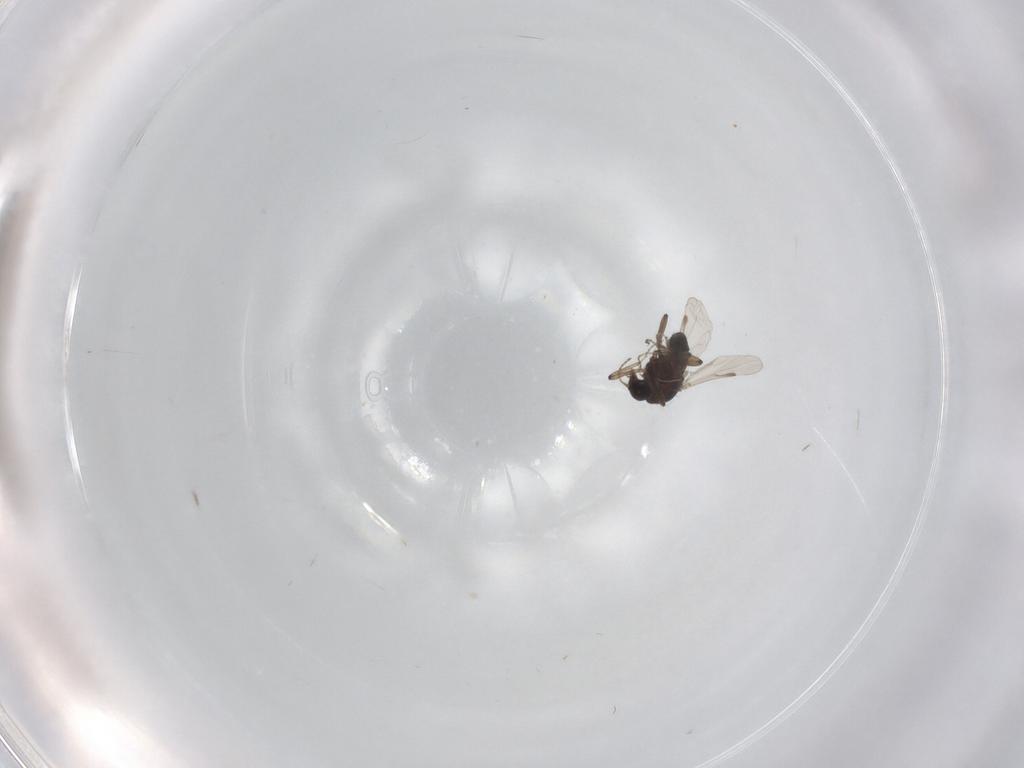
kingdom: Animalia
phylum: Arthropoda
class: Insecta
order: Diptera
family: Ceratopogonidae
